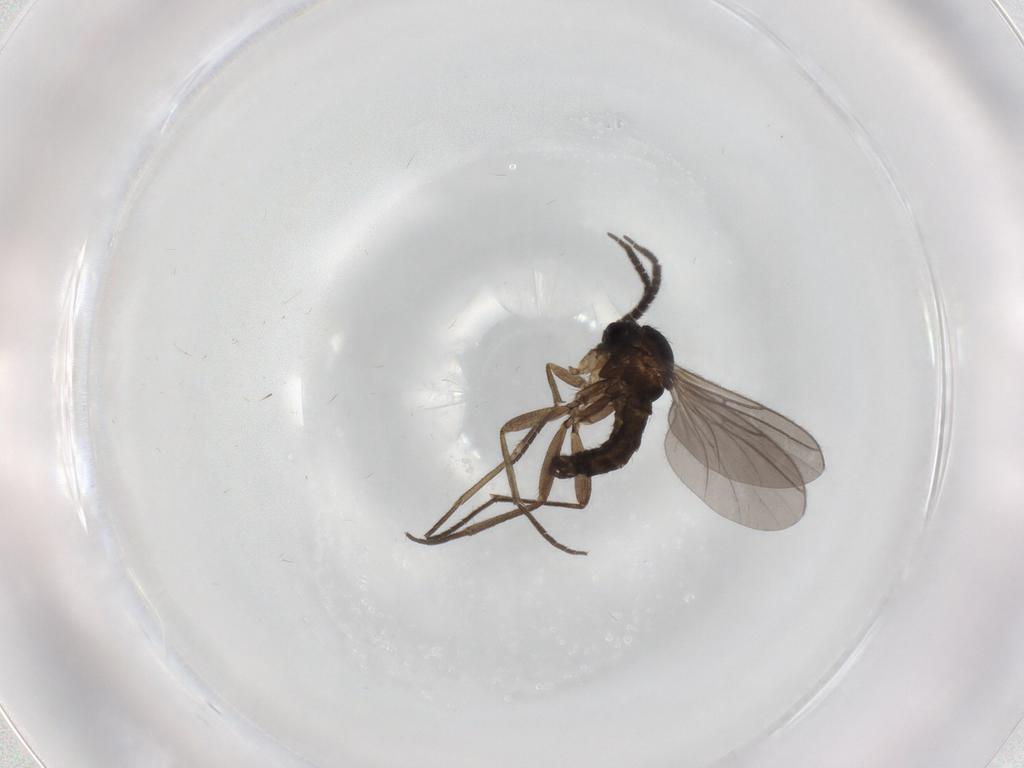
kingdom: Animalia
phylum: Arthropoda
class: Insecta
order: Diptera
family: Sciaridae
